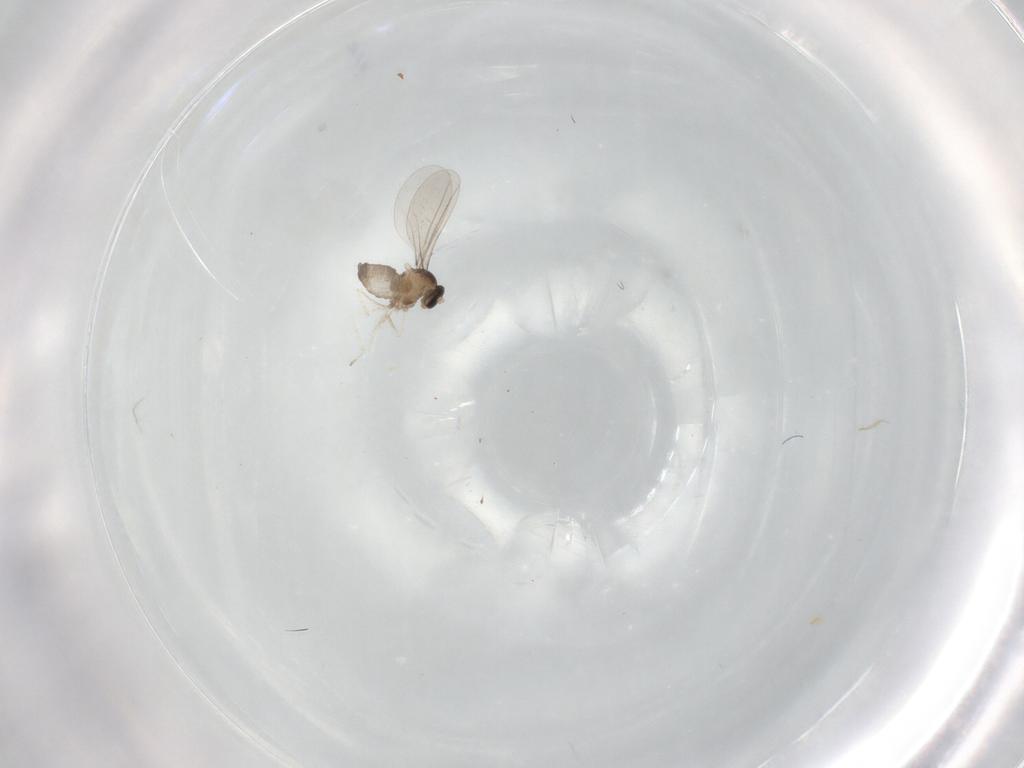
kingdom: Animalia
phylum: Arthropoda
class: Insecta
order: Diptera
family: Cecidomyiidae
